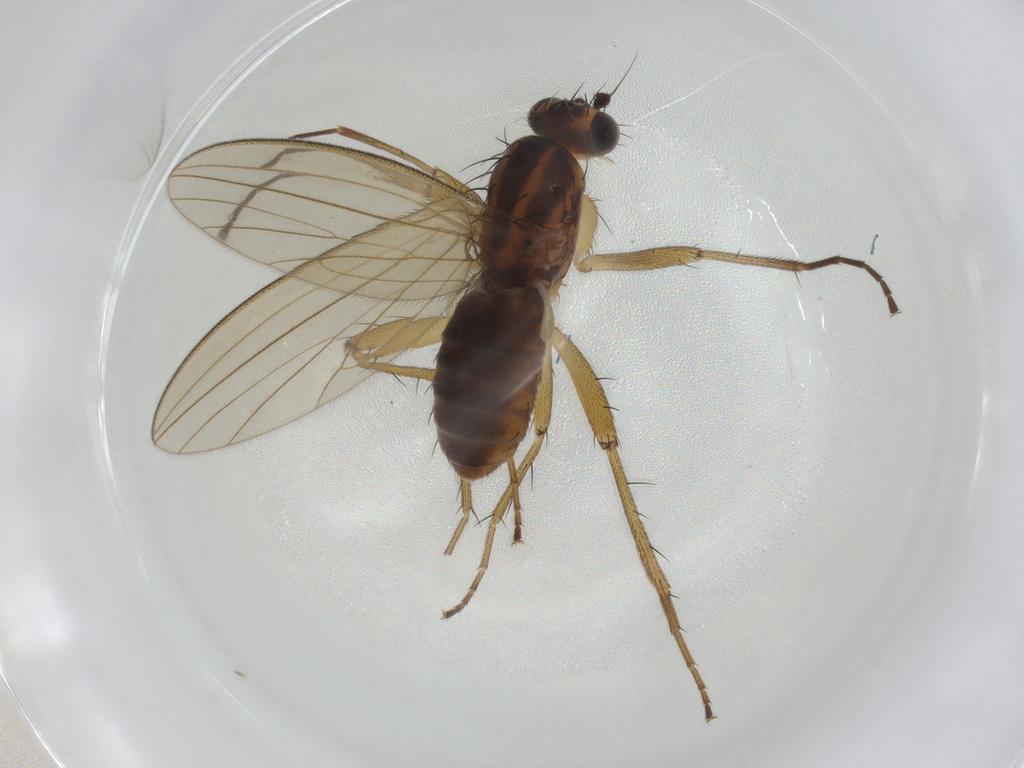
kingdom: Animalia
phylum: Arthropoda
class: Insecta
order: Diptera
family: Lonchopteridae
